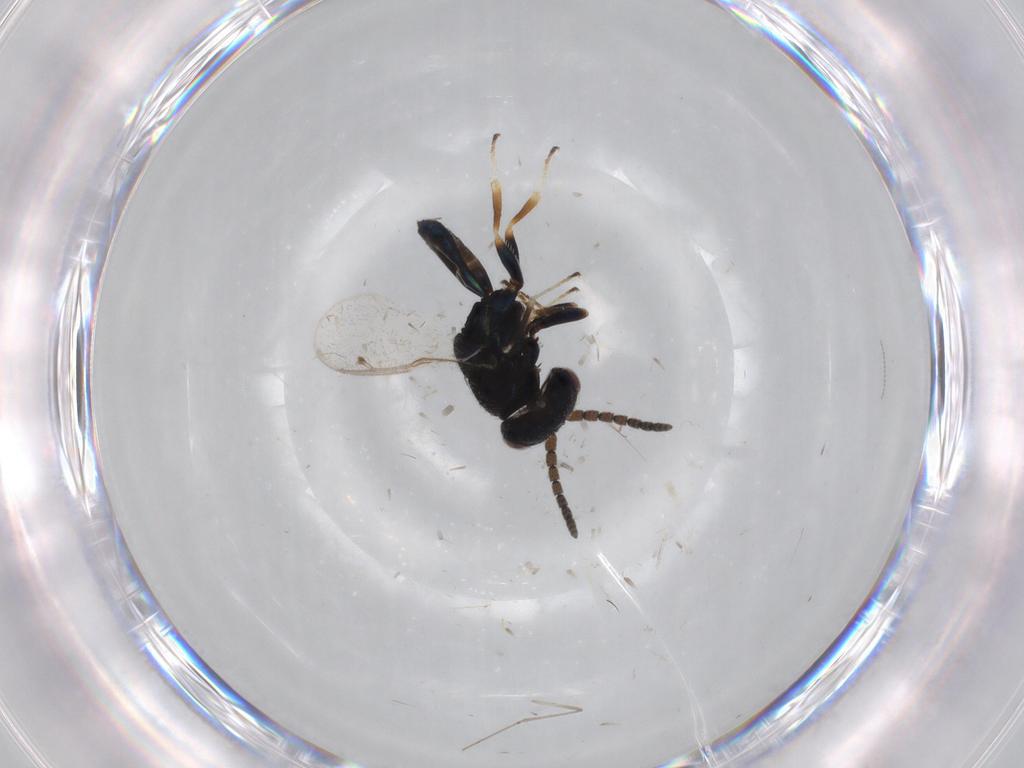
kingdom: Animalia
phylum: Arthropoda
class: Insecta
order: Hymenoptera
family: Pteromalidae
